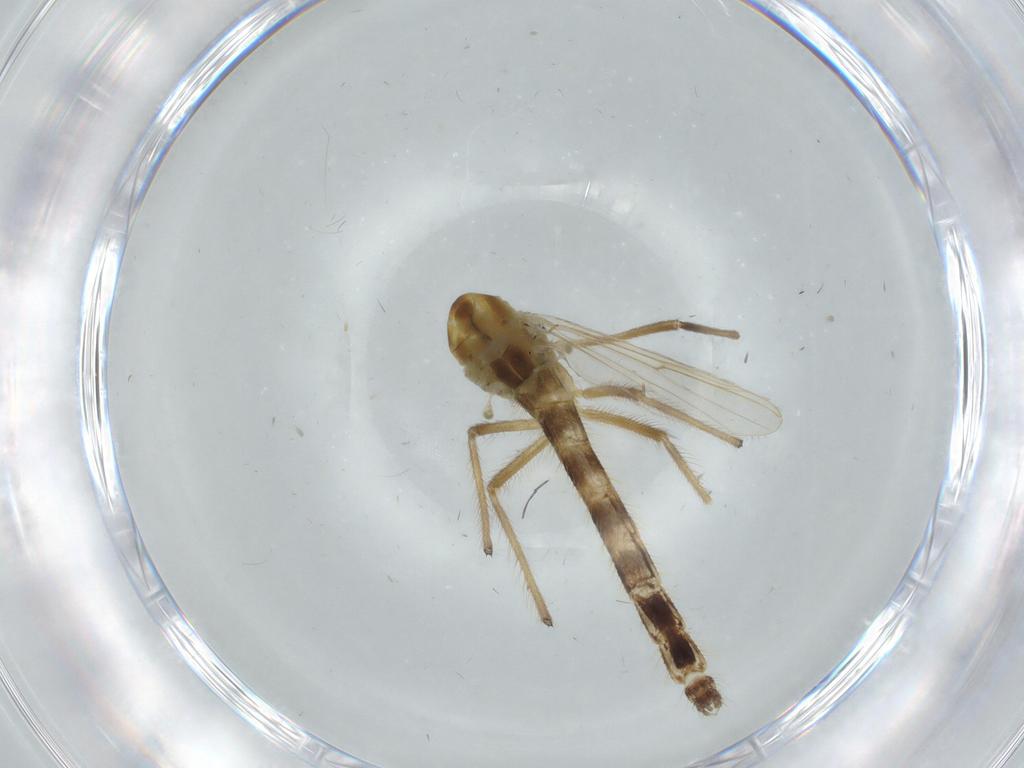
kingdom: Animalia
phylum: Arthropoda
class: Insecta
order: Diptera
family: Chironomidae
